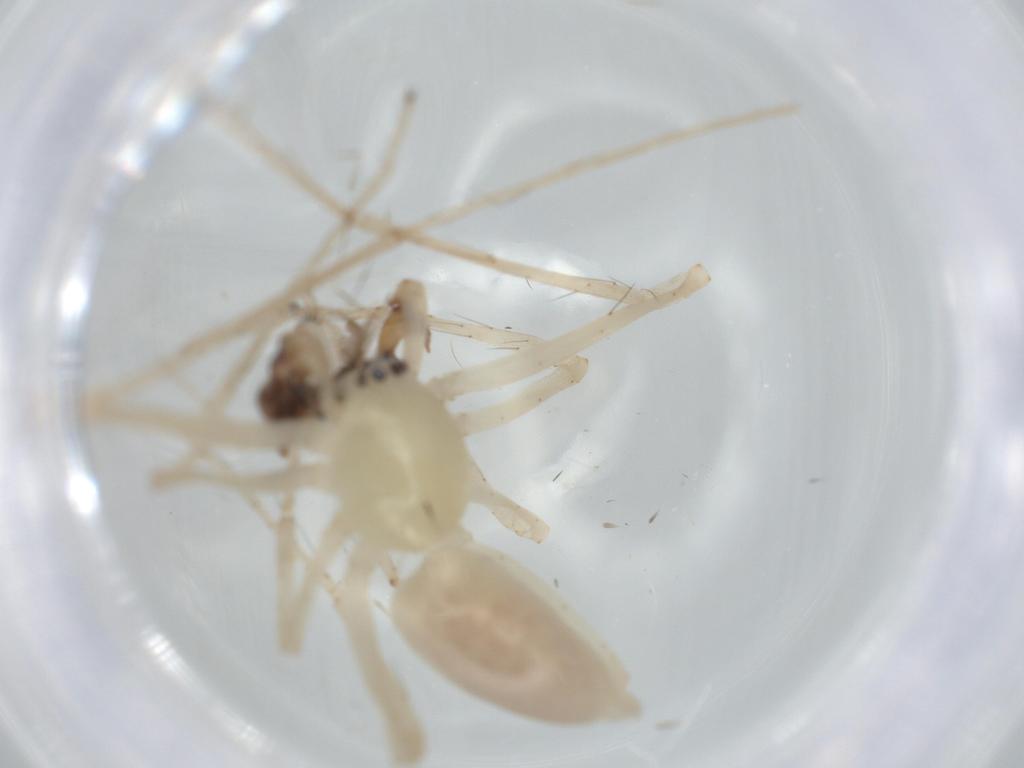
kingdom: Animalia
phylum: Arthropoda
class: Arachnida
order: Araneae
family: Anyphaenidae
